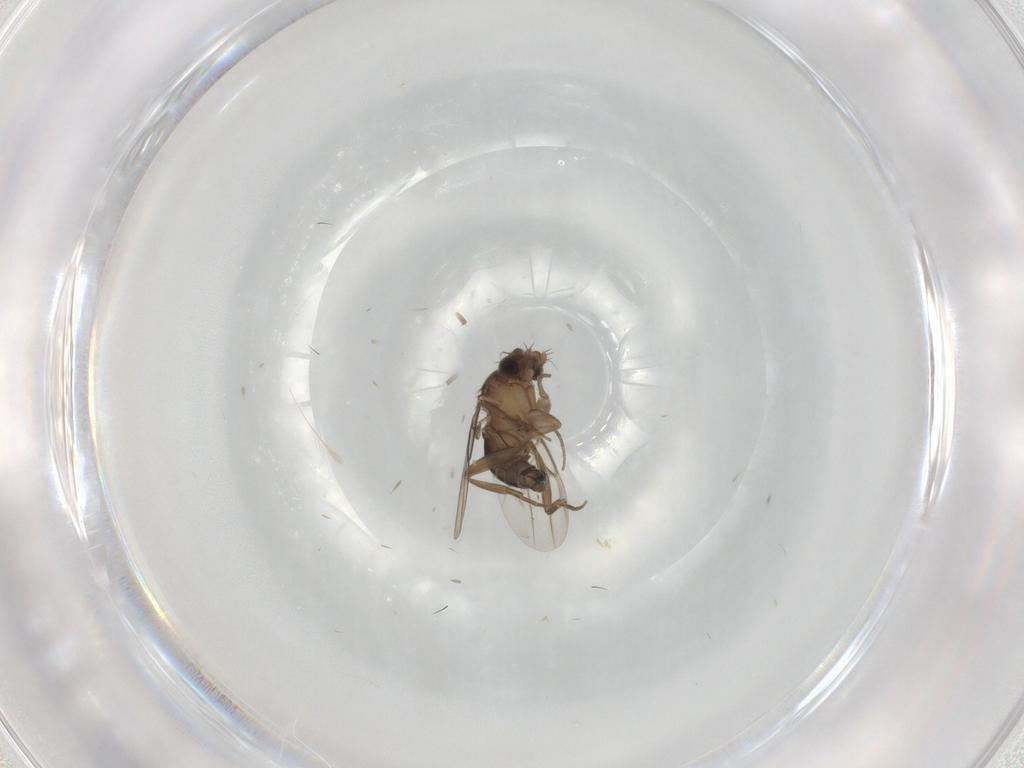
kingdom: Animalia
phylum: Arthropoda
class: Insecta
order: Diptera
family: Phoridae
